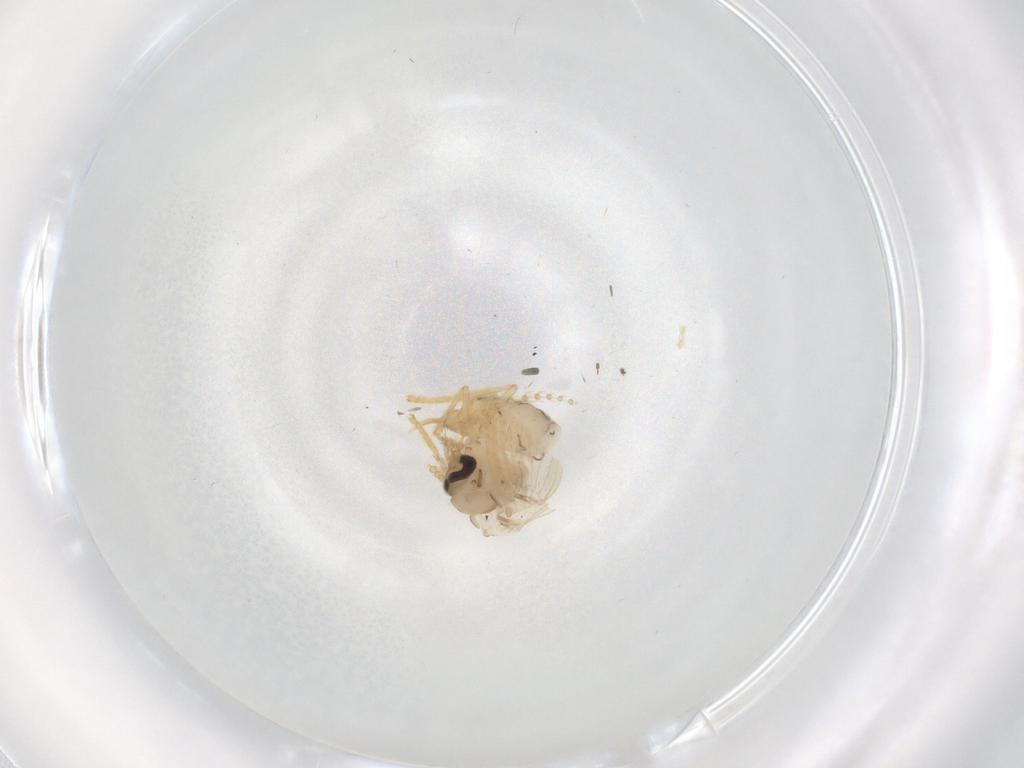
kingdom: Animalia
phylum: Arthropoda
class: Insecta
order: Diptera
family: Psychodidae
